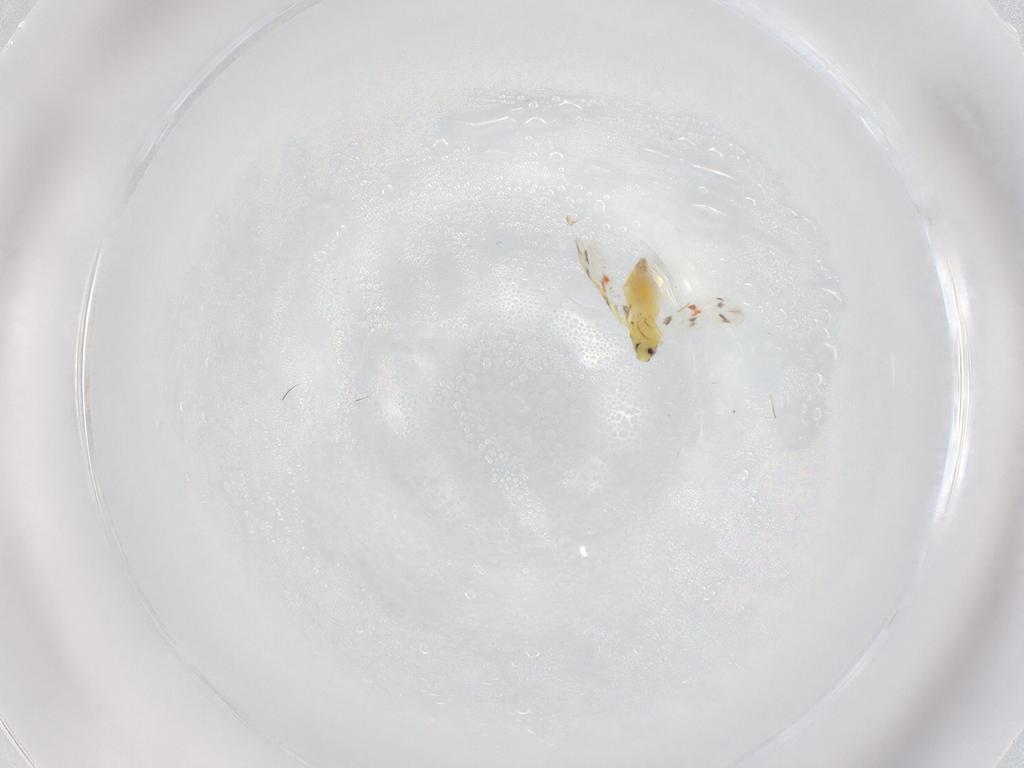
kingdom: Animalia
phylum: Arthropoda
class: Insecta
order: Hemiptera
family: Aleyrodidae
